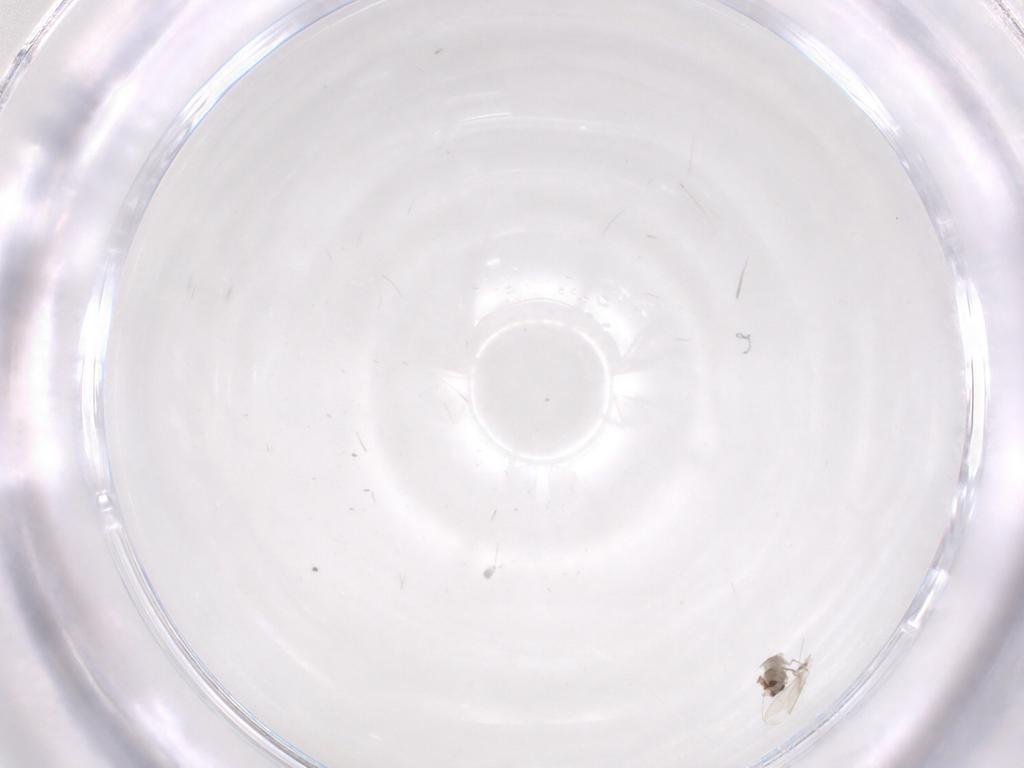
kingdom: Animalia
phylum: Arthropoda
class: Insecta
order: Diptera
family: Cecidomyiidae
